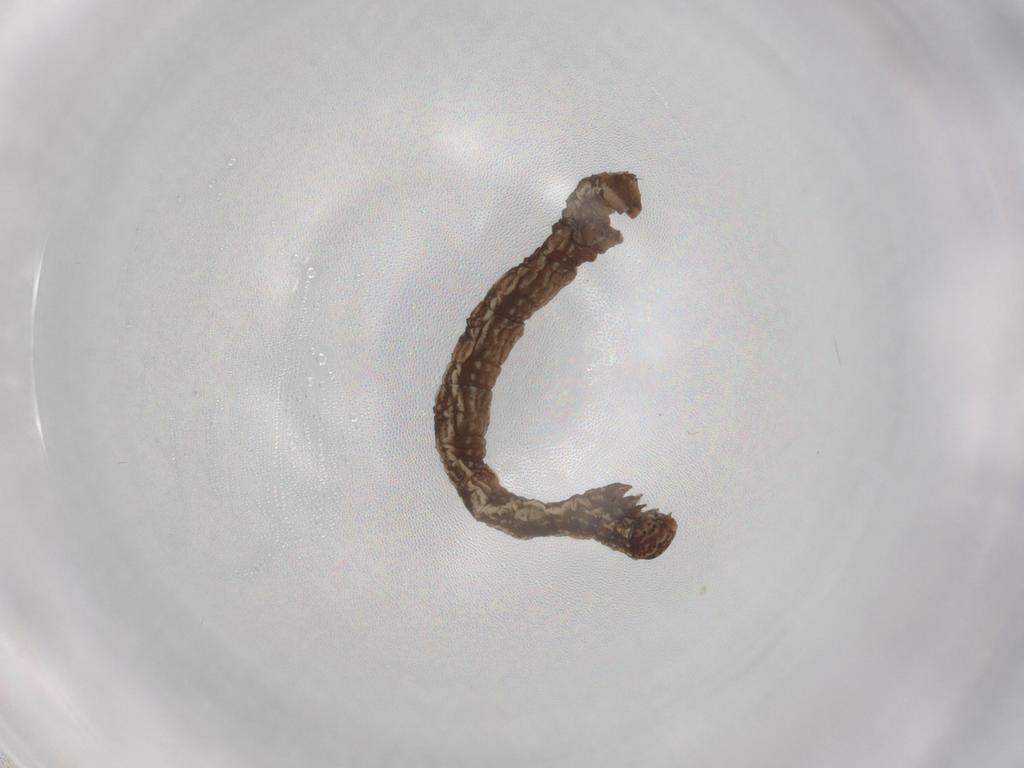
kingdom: Animalia
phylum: Arthropoda
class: Insecta
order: Lepidoptera
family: Geometridae
